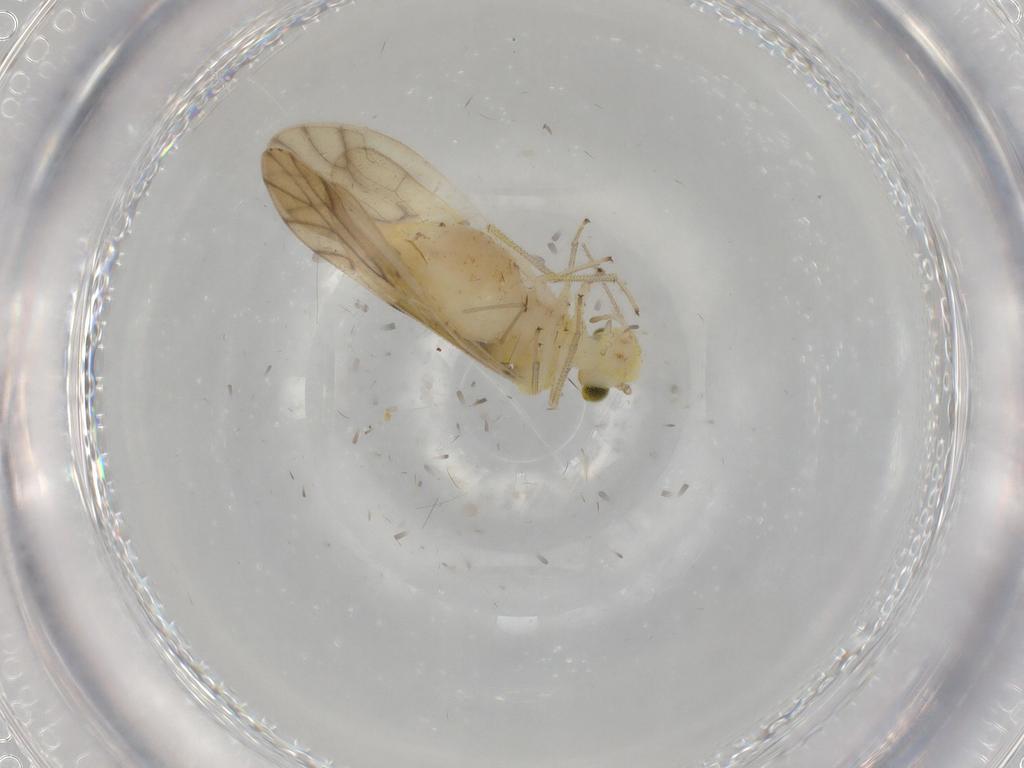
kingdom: Animalia
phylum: Arthropoda
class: Insecta
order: Psocodea
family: Caeciliusidae
